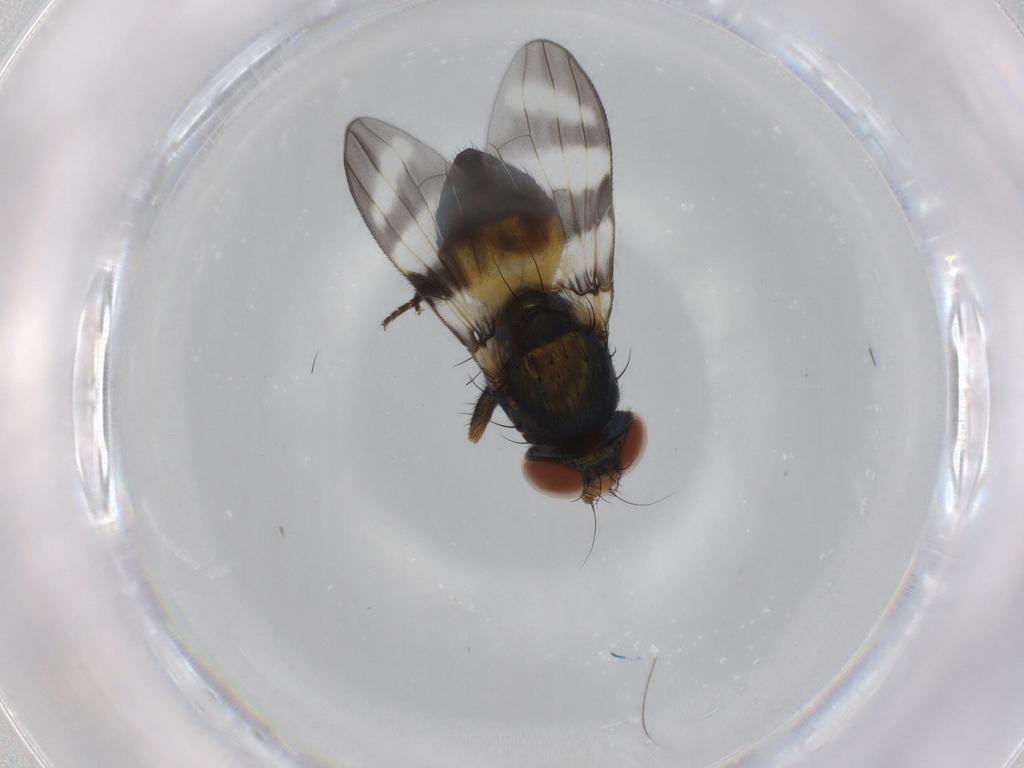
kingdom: Animalia
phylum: Arthropoda
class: Insecta
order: Diptera
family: Tabanidae
